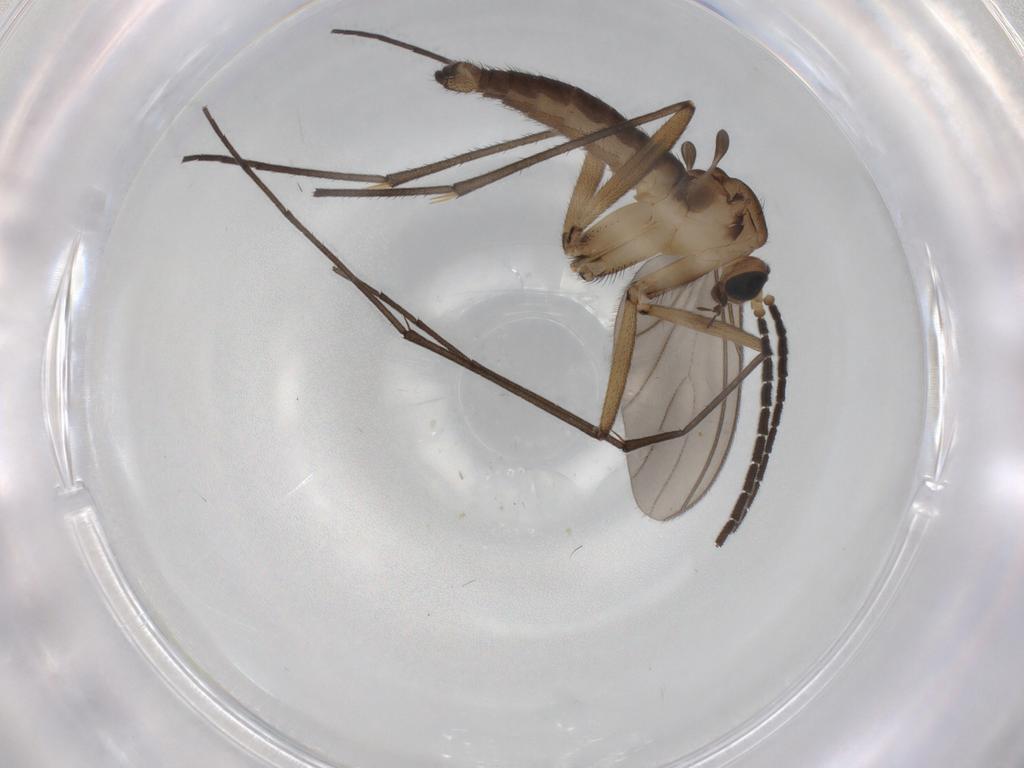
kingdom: Animalia
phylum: Arthropoda
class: Insecta
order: Diptera
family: Sciaridae
